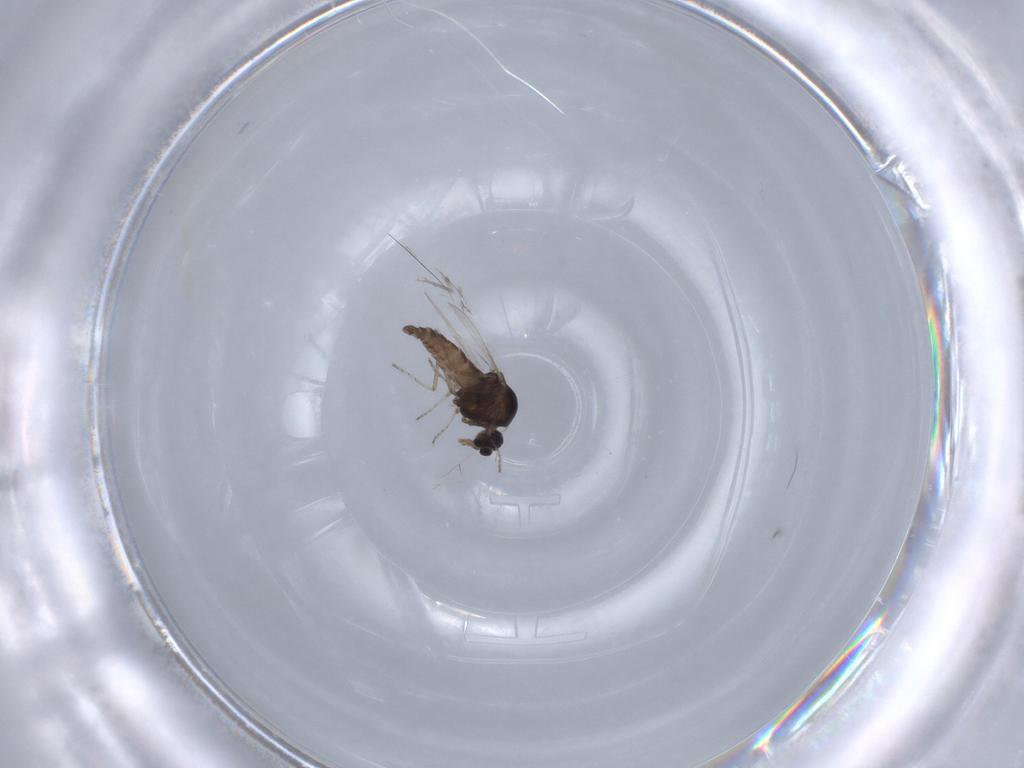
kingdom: Animalia
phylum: Arthropoda
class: Insecta
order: Diptera
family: Ceratopogonidae
